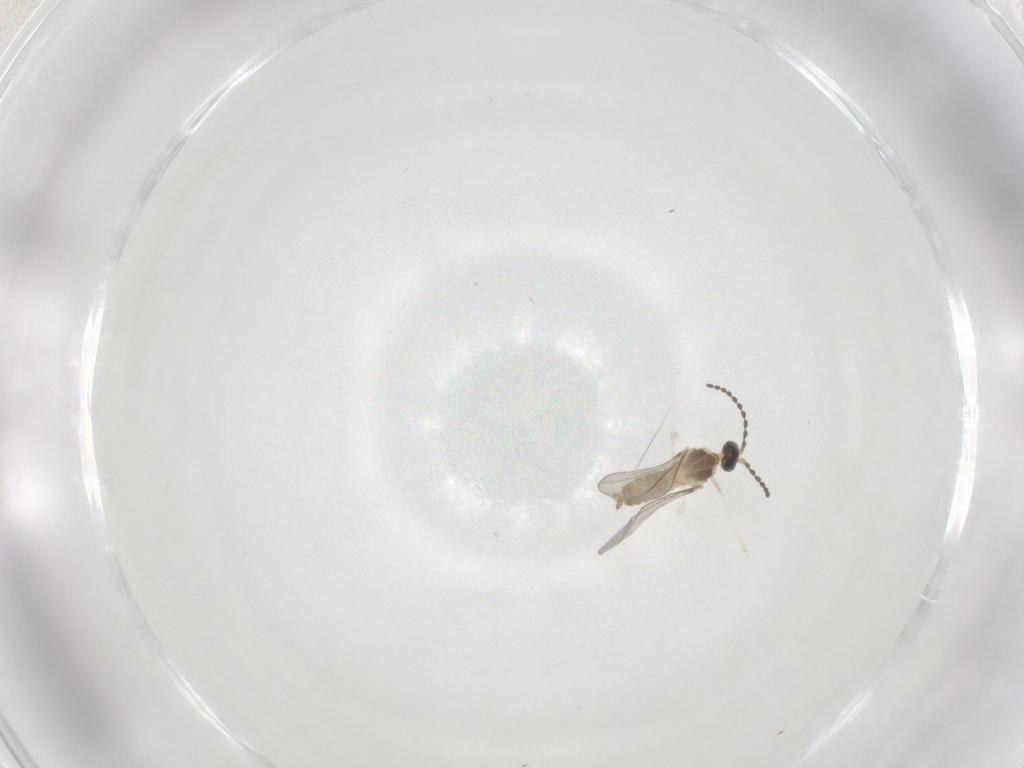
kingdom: Animalia
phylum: Arthropoda
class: Insecta
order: Diptera
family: Cecidomyiidae
